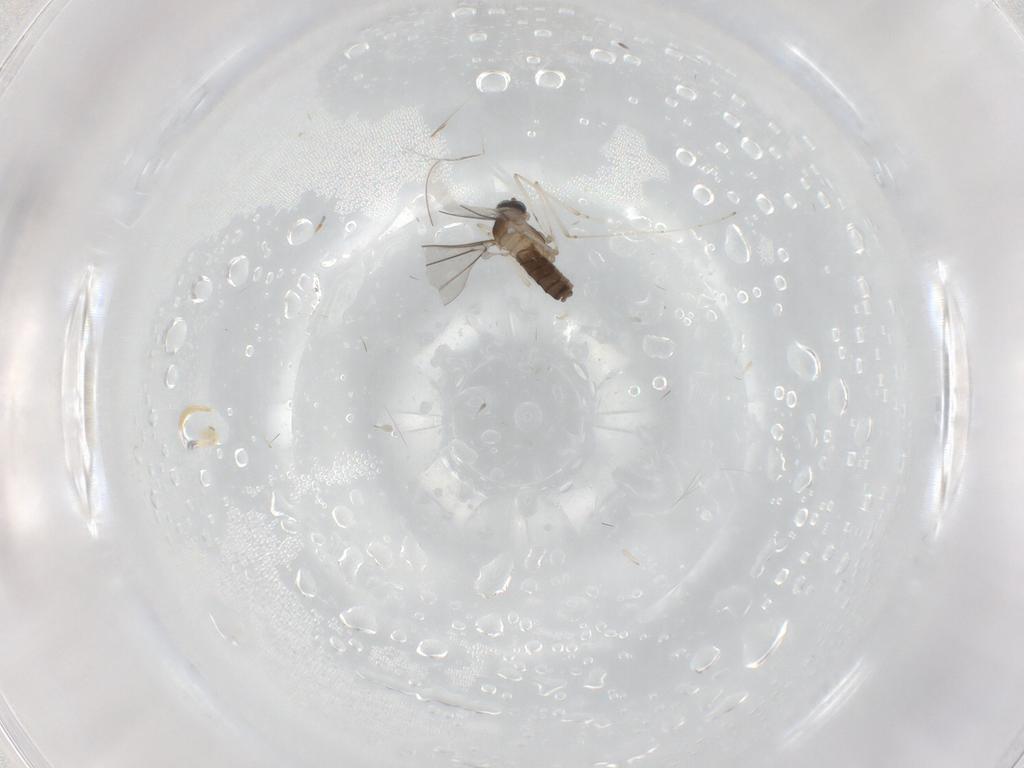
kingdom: Animalia
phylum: Arthropoda
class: Insecta
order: Diptera
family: Cecidomyiidae
